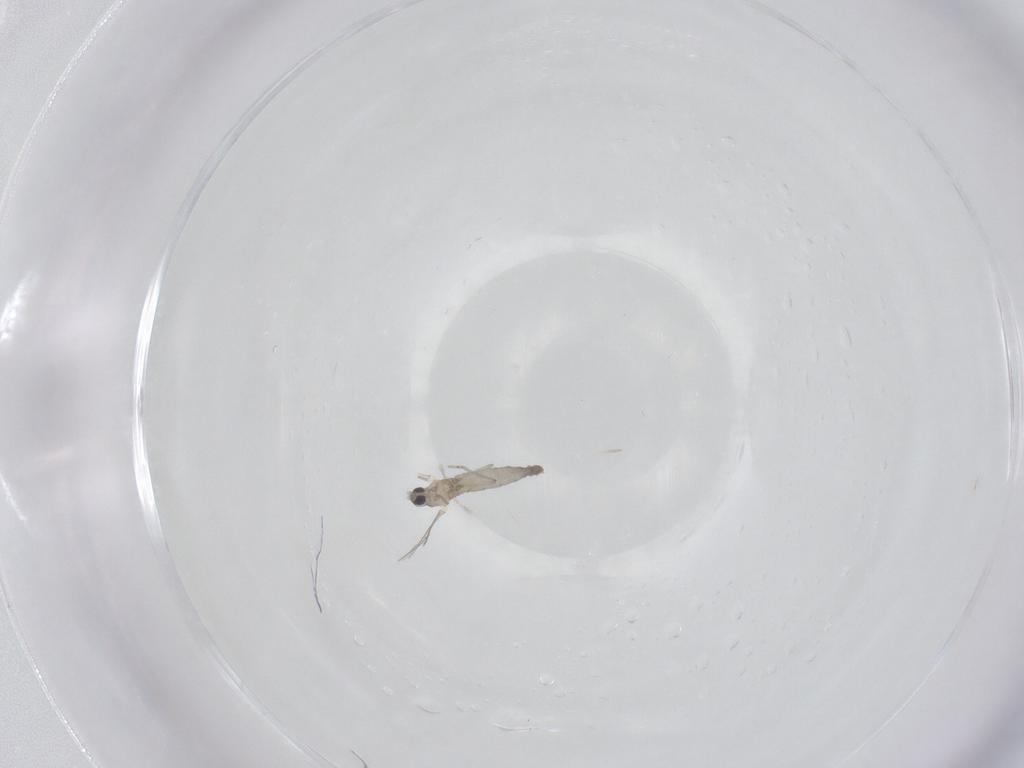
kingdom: Animalia
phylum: Arthropoda
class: Insecta
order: Diptera
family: Cecidomyiidae
